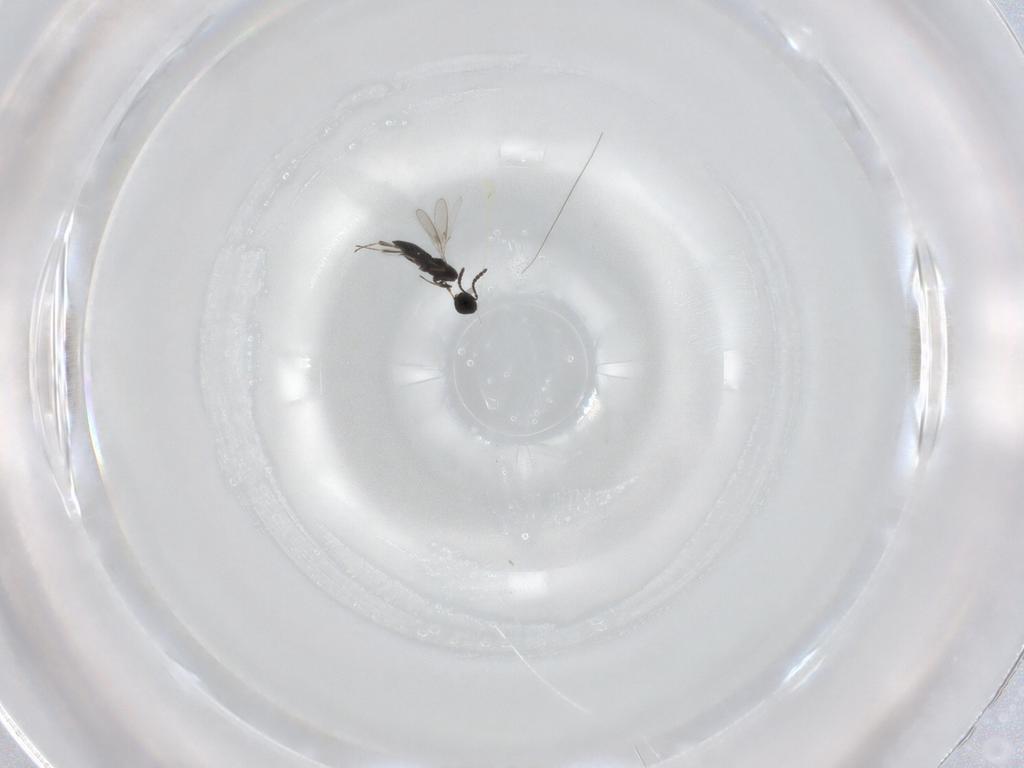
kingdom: Animalia
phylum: Arthropoda
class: Insecta
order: Hymenoptera
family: Scelionidae
